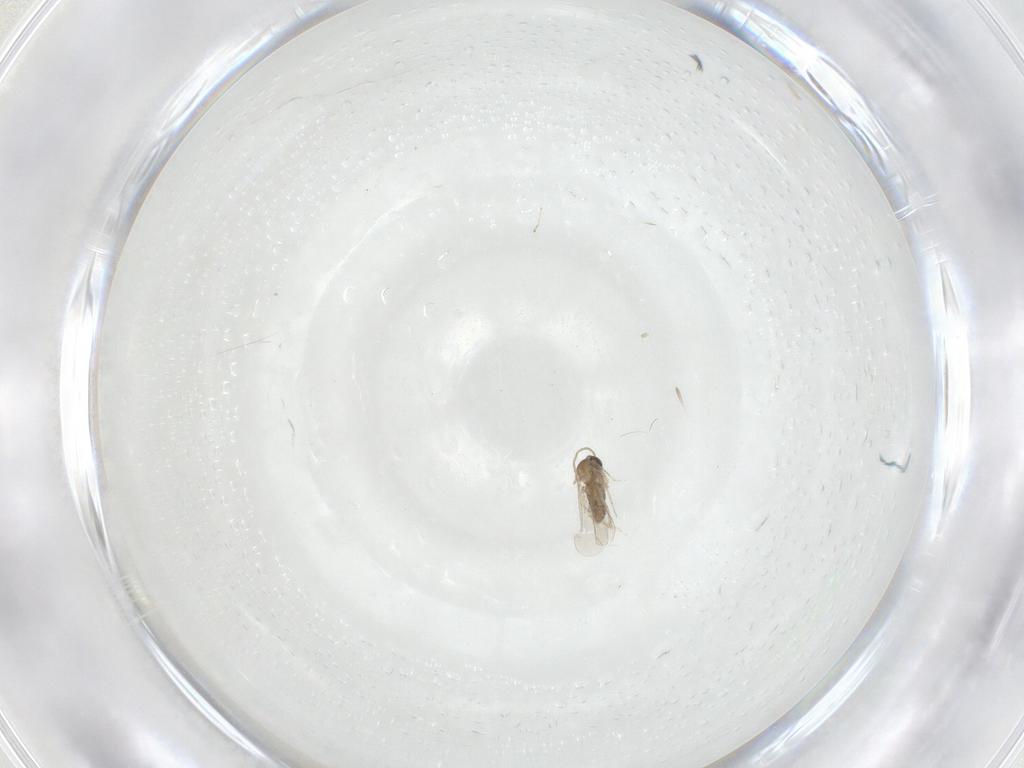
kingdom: Animalia
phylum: Arthropoda
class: Insecta
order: Diptera
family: Cecidomyiidae
